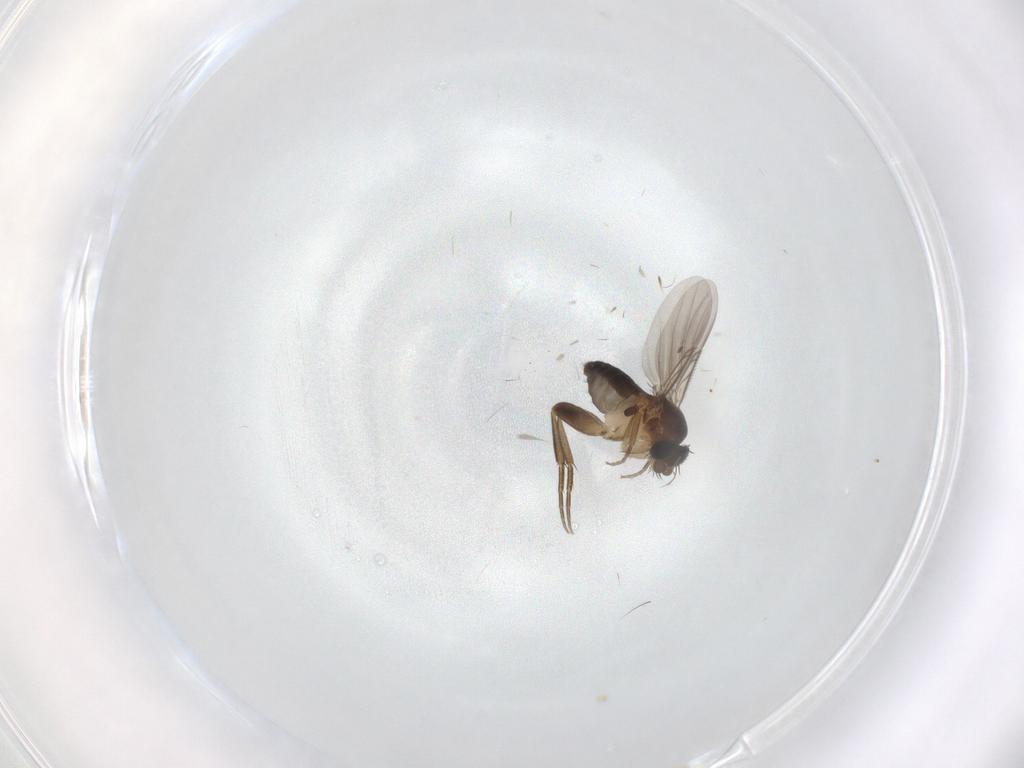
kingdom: Animalia
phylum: Arthropoda
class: Insecta
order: Diptera
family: Phoridae
